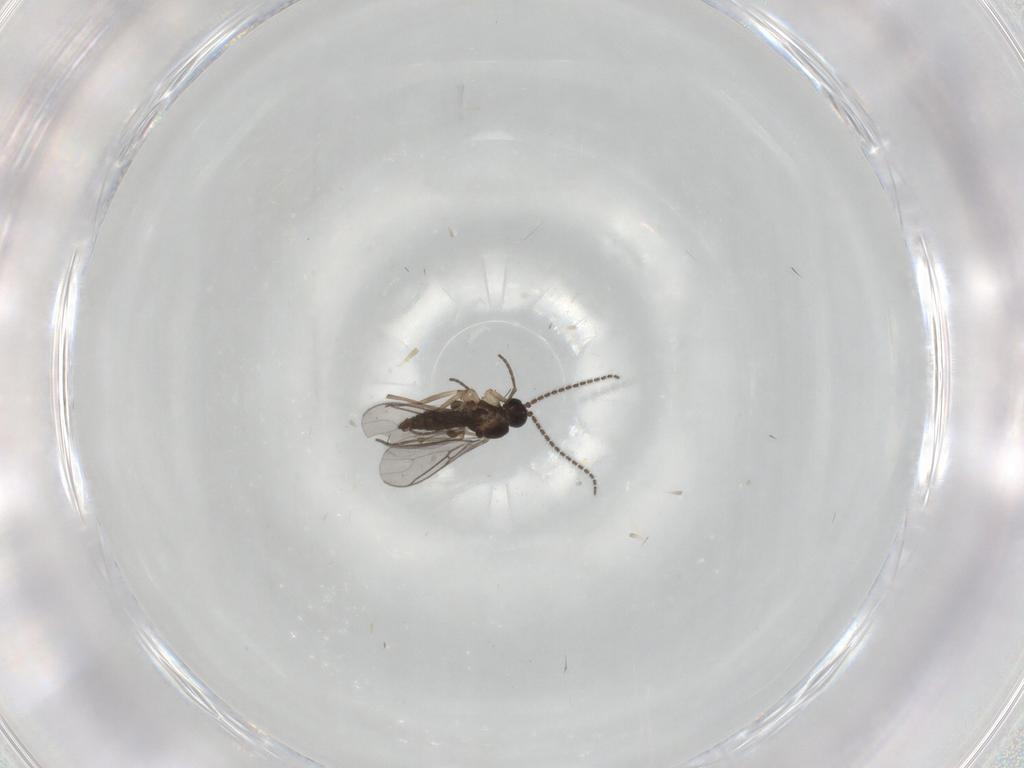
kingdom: Animalia
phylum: Arthropoda
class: Insecta
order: Diptera
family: Sciaridae
